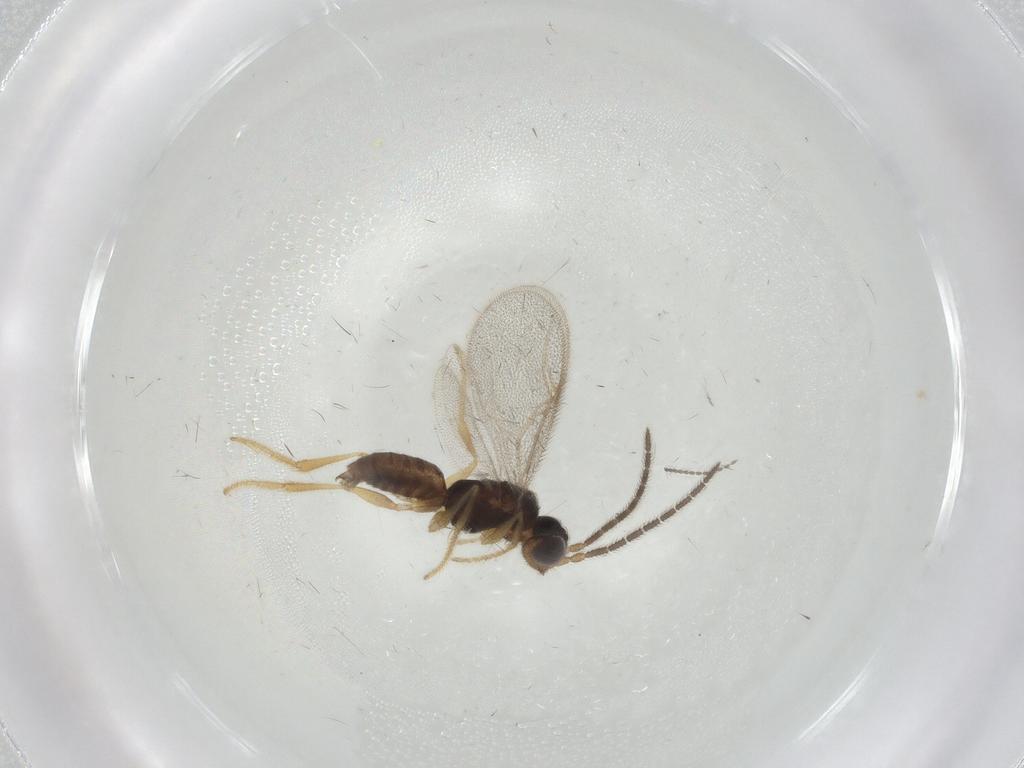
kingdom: Animalia
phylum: Arthropoda
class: Insecta
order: Hymenoptera
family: Dryinidae
